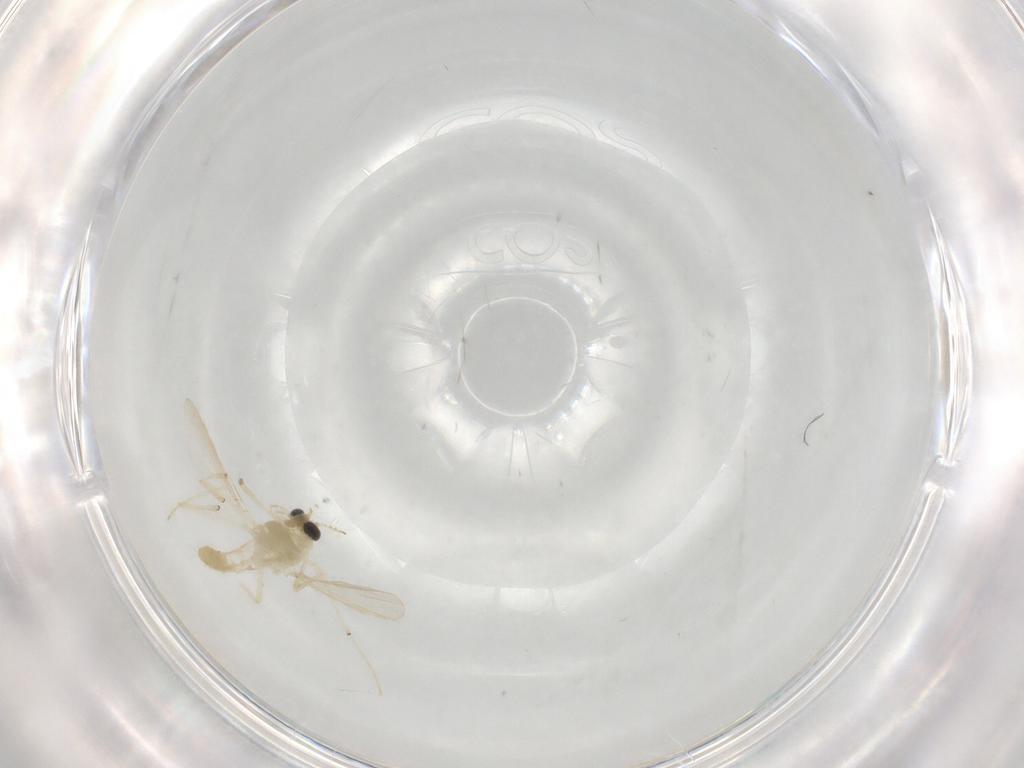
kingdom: Animalia
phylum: Arthropoda
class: Insecta
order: Diptera
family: Chironomidae
